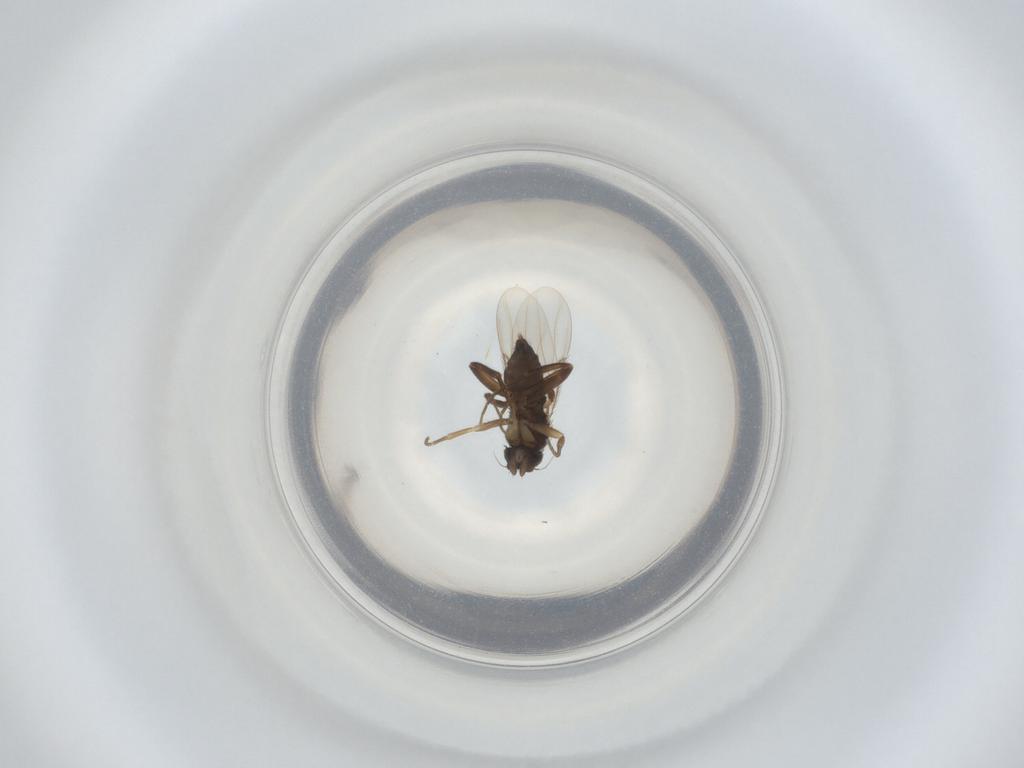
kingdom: Animalia
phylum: Arthropoda
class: Insecta
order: Diptera
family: Phoridae
